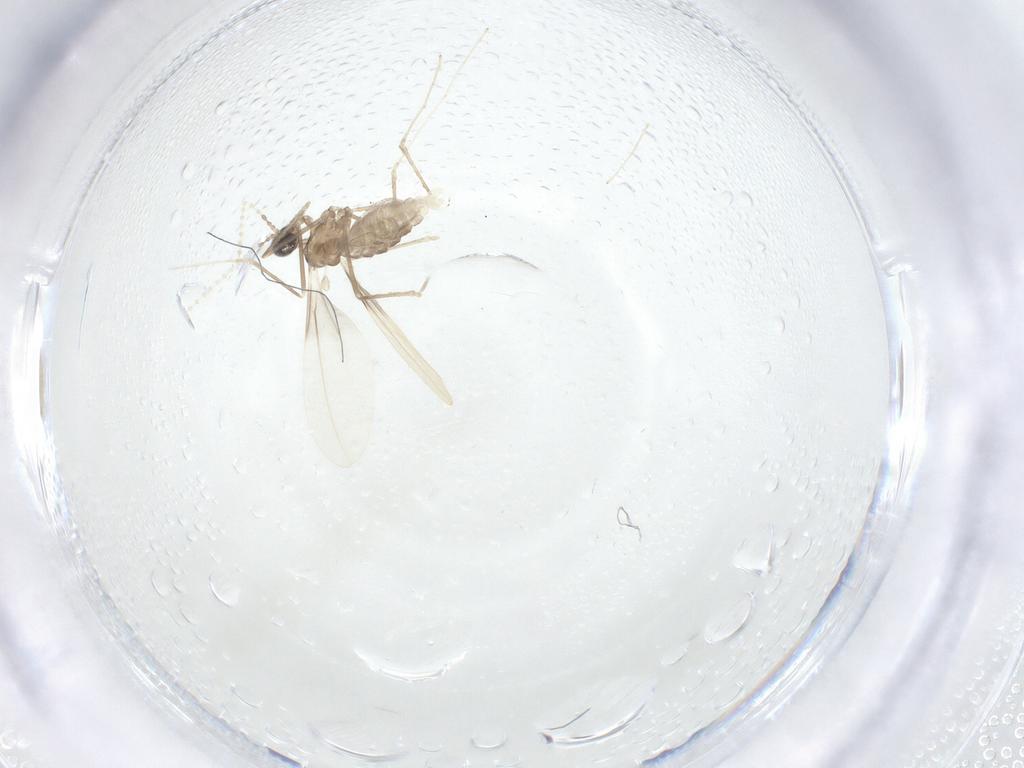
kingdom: Animalia
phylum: Arthropoda
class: Insecta
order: Diptera
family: Cecidomyiidae
